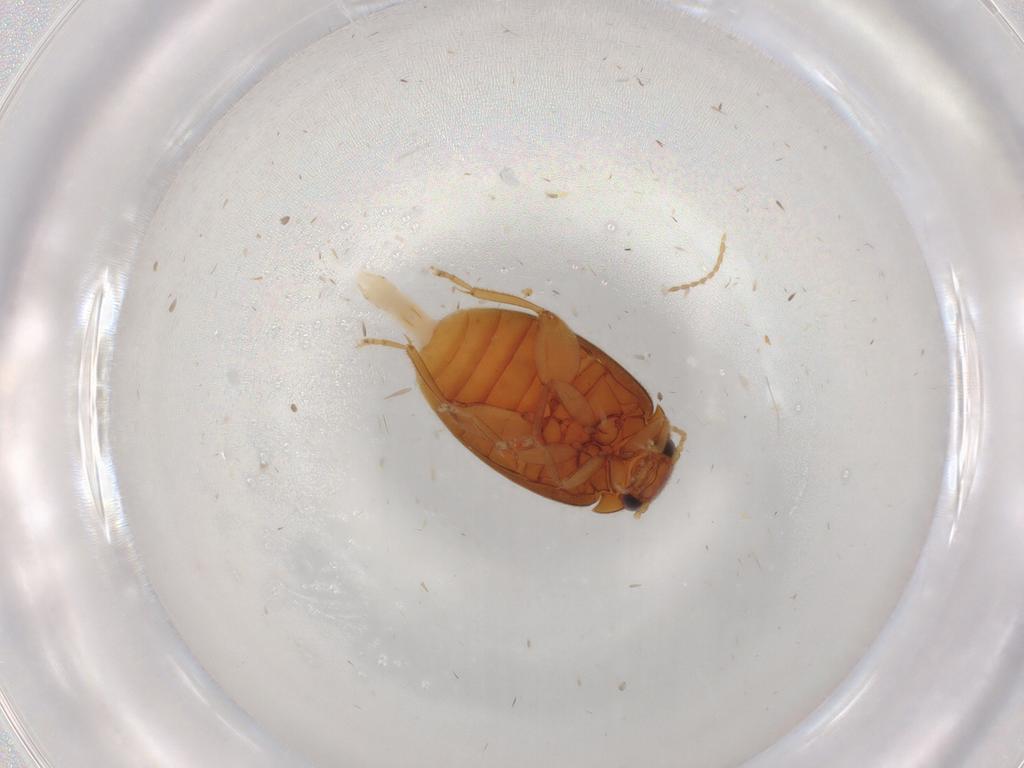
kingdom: Animalia
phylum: Arthropoda
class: Insecta
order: Coleoptera
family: Scirtidae
